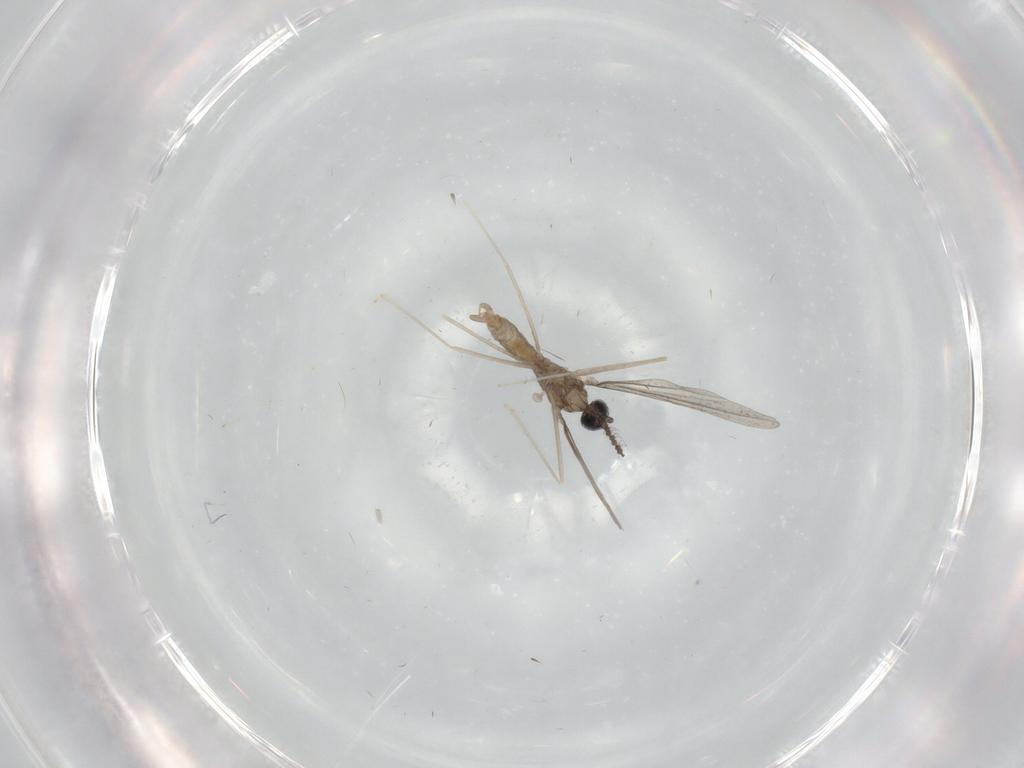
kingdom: Animalia
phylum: Arthropoda
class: Insecta
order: Diptera
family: Cecidomyiidae
